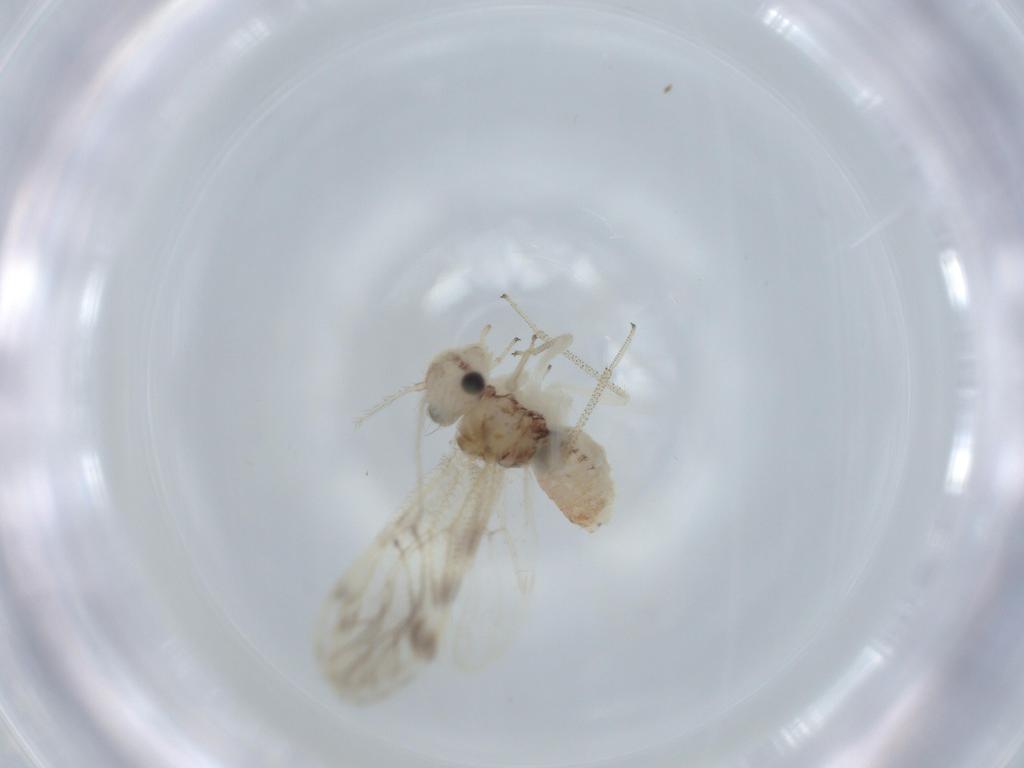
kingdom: Animalia
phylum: Arthropoda
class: Insecta
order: Psocodea
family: Pseudocaeciliidae
